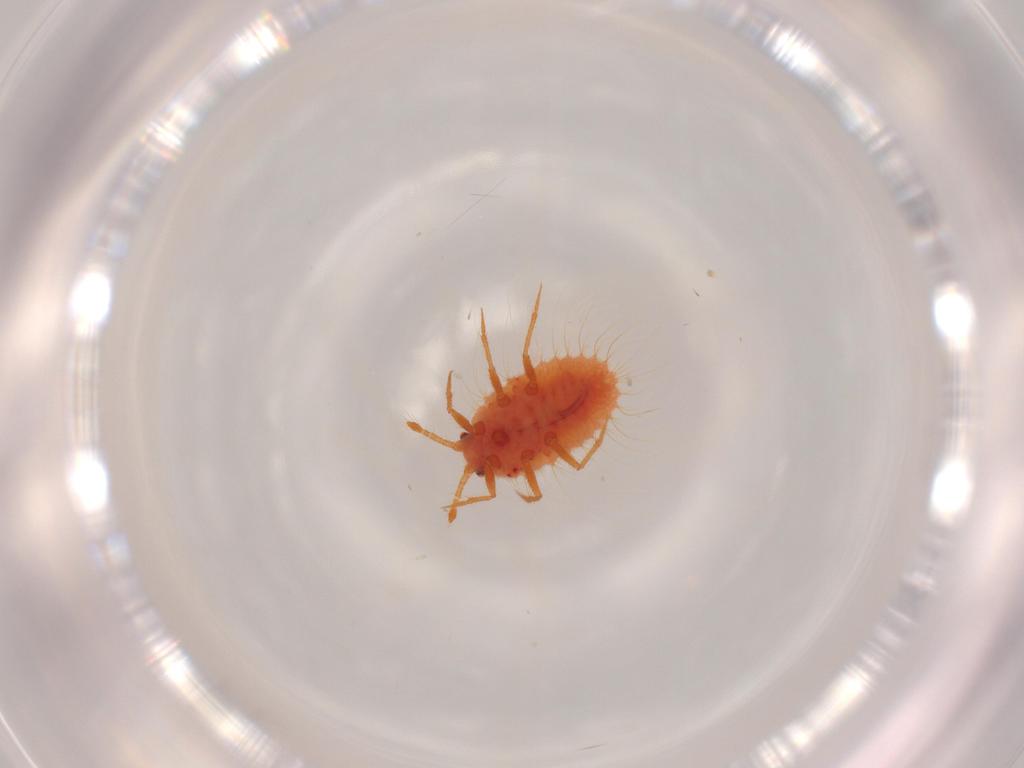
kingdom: Animalia
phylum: Arthropoda
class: Insecta
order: Hemiptera
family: Coccoidea_incertae_sedis
